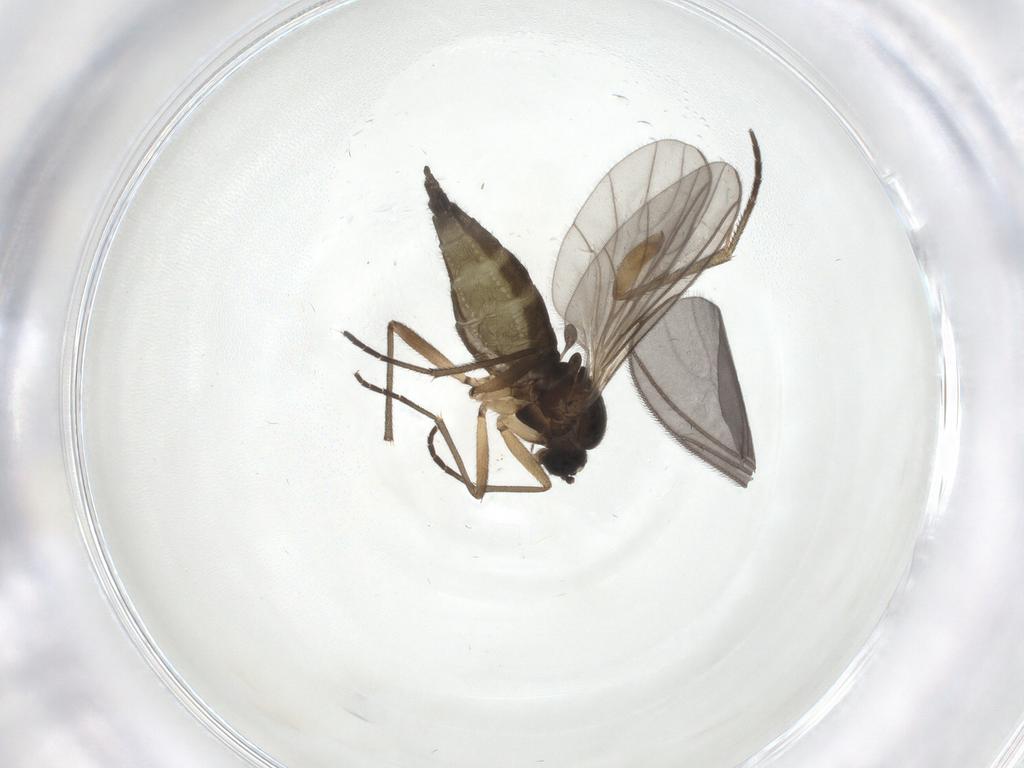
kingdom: Animalia
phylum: Arthropoda
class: Insecta
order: Diptera
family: Sciaridae
